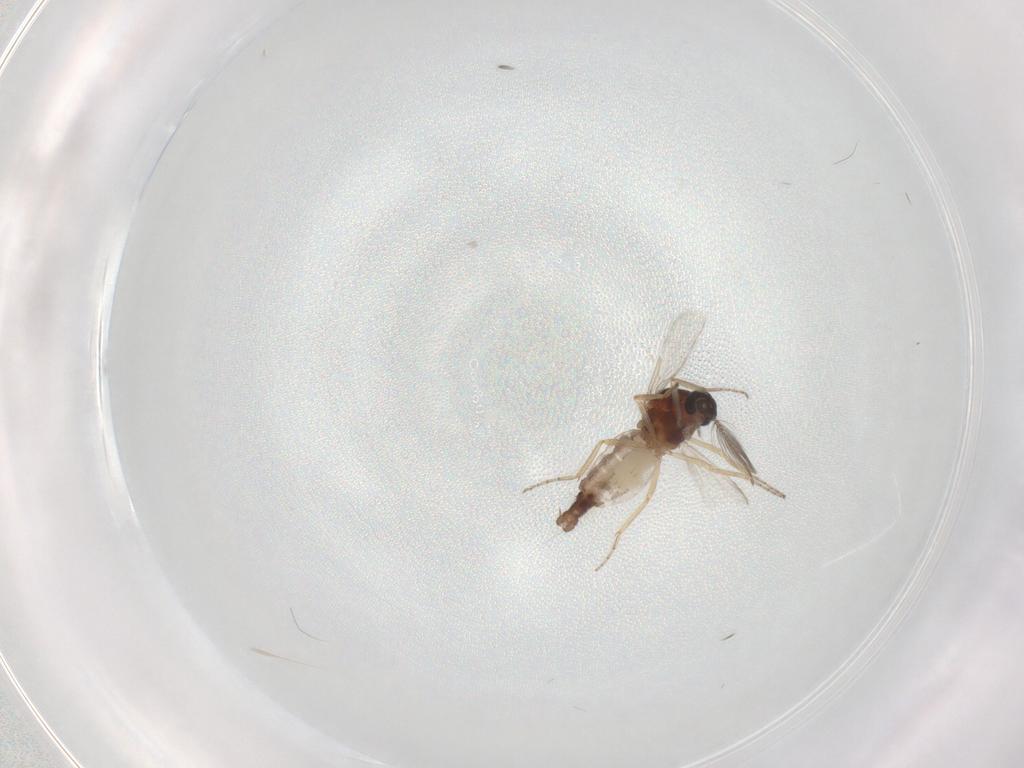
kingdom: Animalia
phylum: Arthropoda
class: Insecta
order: Diptera
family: Ceratopogonidae
